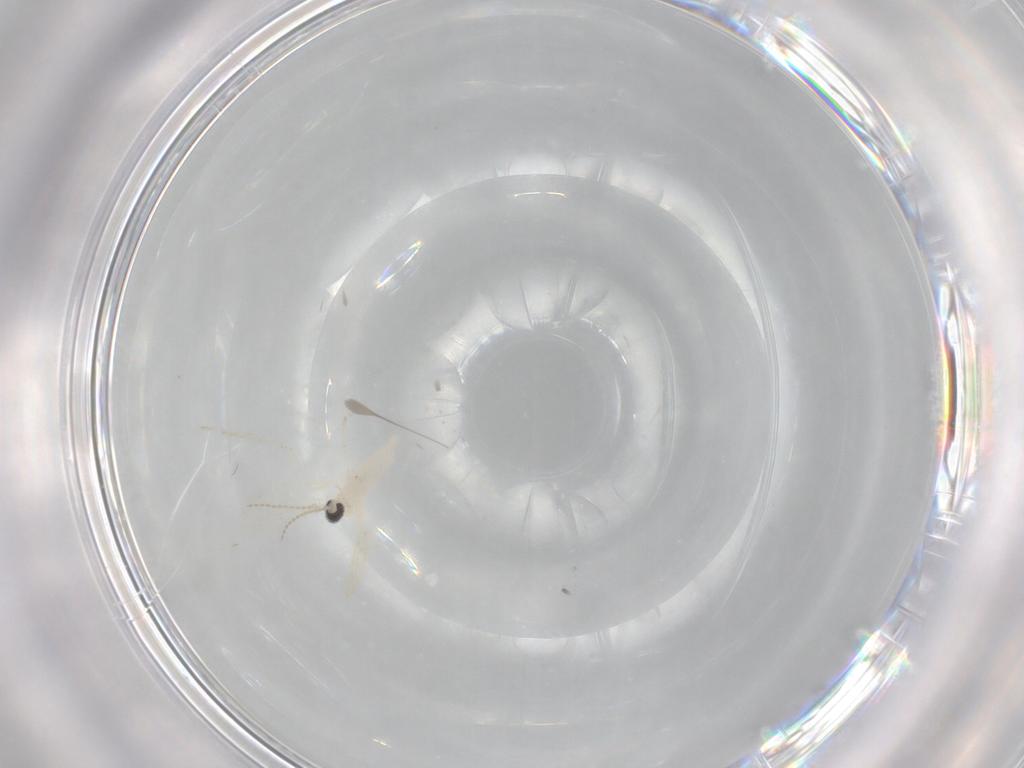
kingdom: Animalia
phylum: Arthropoda
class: Insecta
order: Diptera
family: Cecidomyiidae
